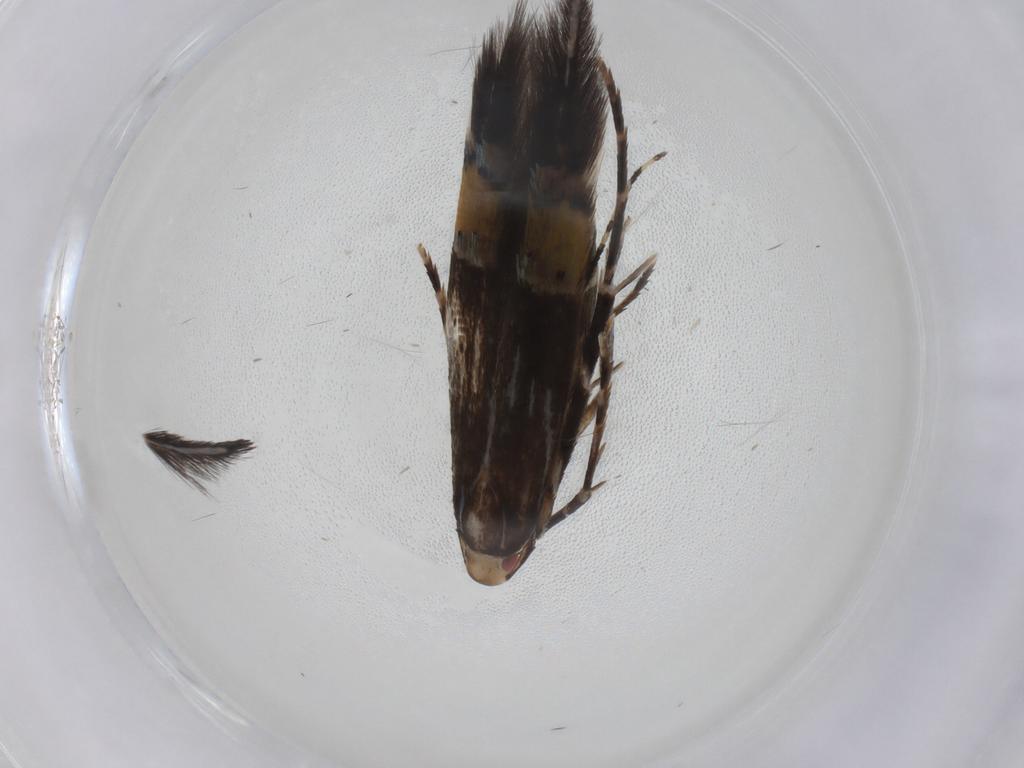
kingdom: Animalia
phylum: Arthropoda
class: Insecta
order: Lepidoptera
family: Cosmopterigidae
